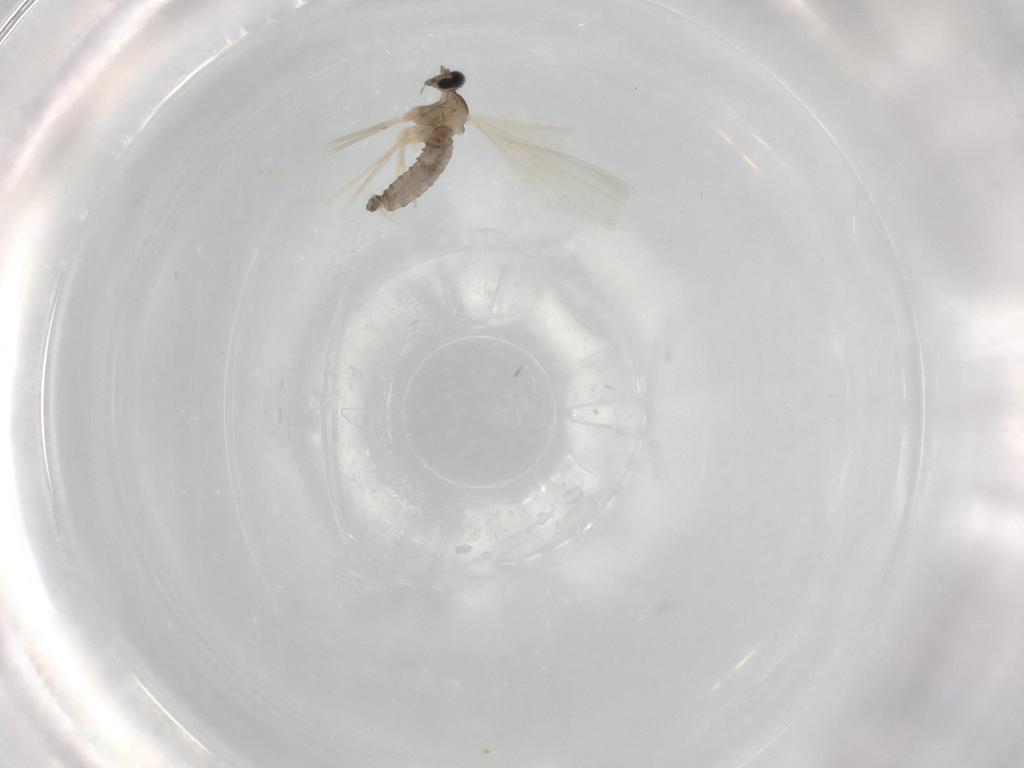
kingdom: Animalia
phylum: Arthropoda
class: Insecta
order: Diptera
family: Cecidomyiidae
